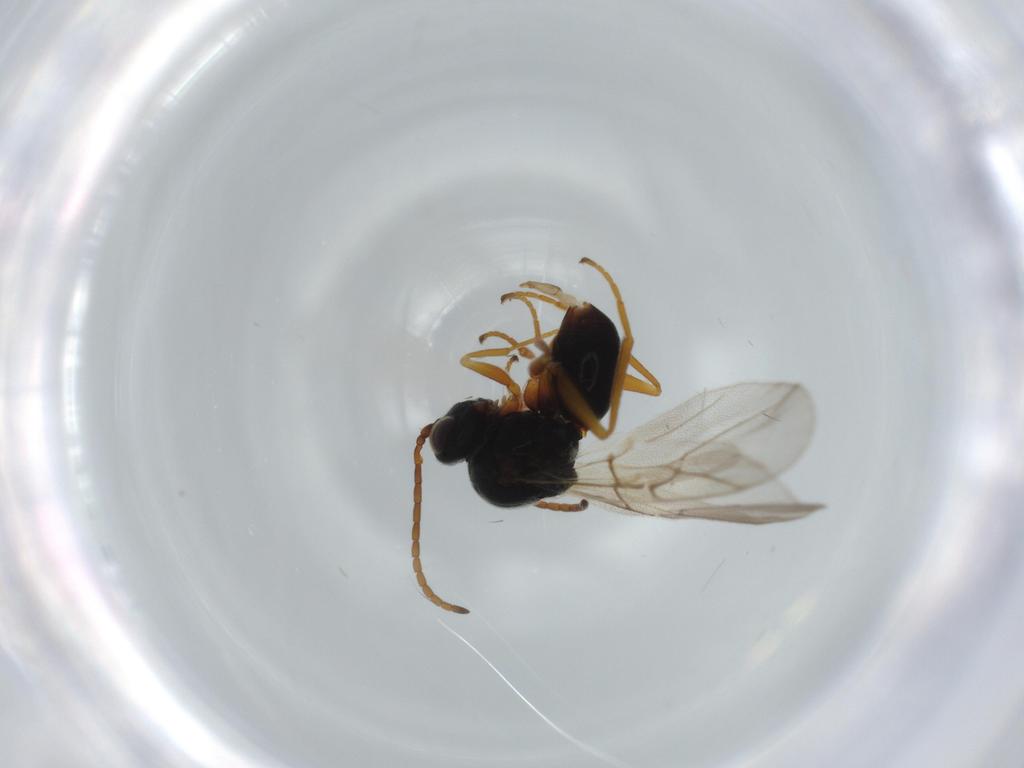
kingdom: Animalia
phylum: Arthropoda
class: Insecta
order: Hymenoptera
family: Cynipidae
